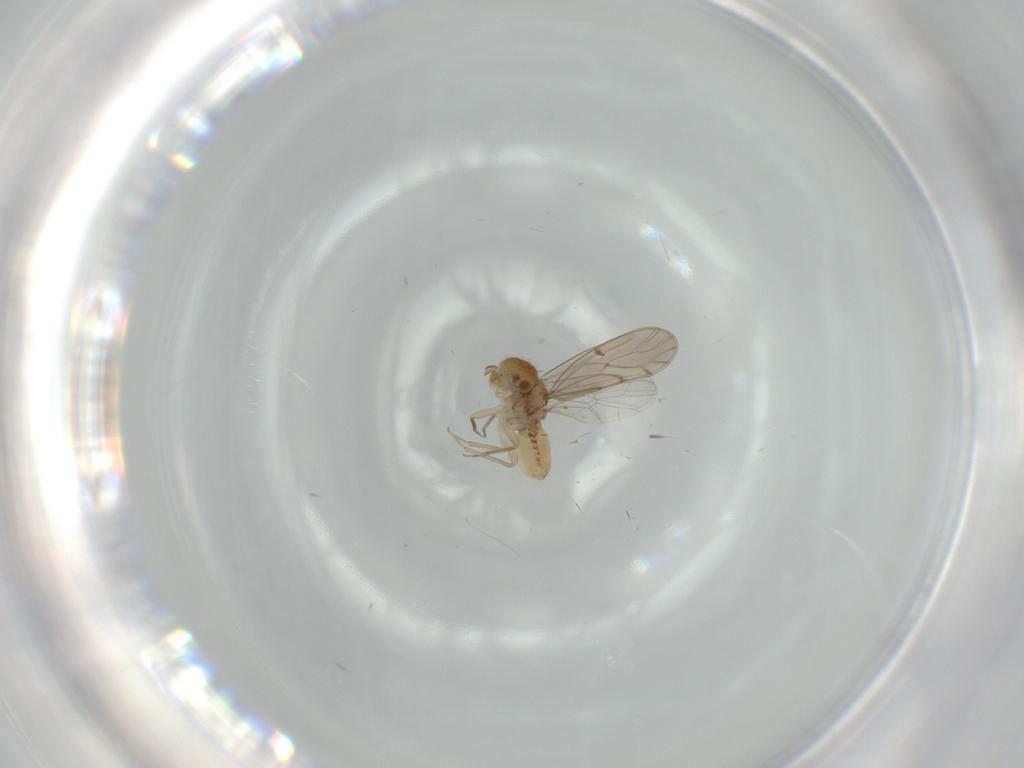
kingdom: Animalia
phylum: Arthropoda
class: Insecta
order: Psocodea
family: Ectopsocidae
